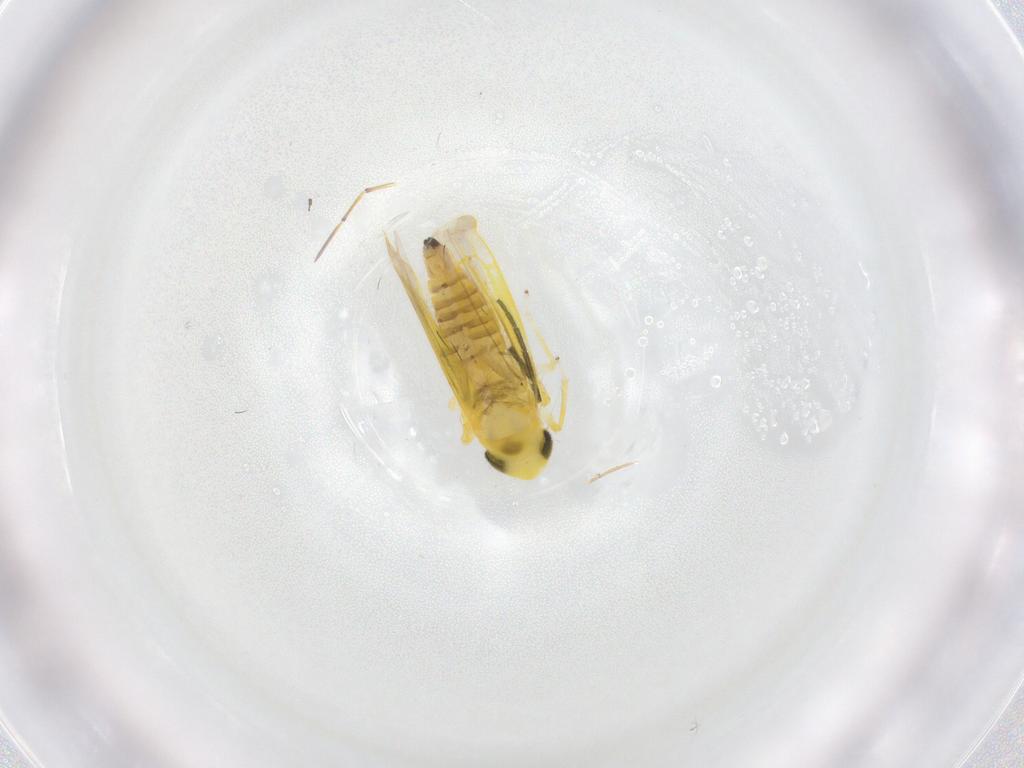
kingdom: Animalia
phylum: Arthropoda
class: Insecta
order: Hemiptera
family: Cicadellidae
